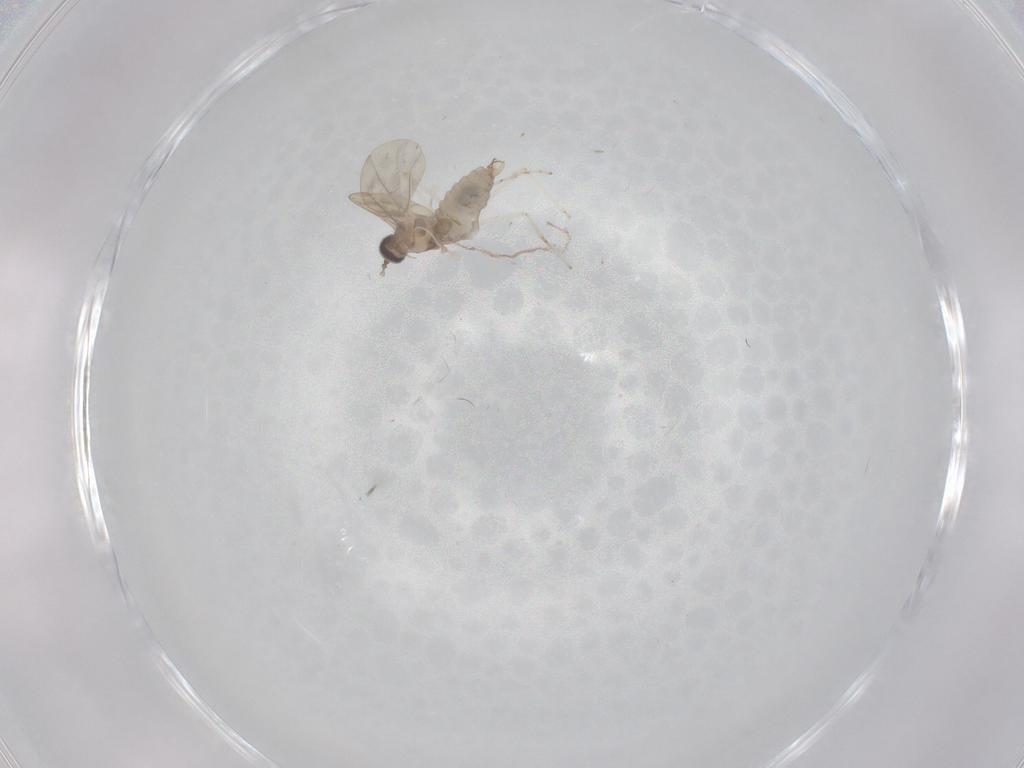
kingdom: Animalia
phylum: Arthropoda
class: Insecta
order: Diptera
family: Cecidomyiidae
